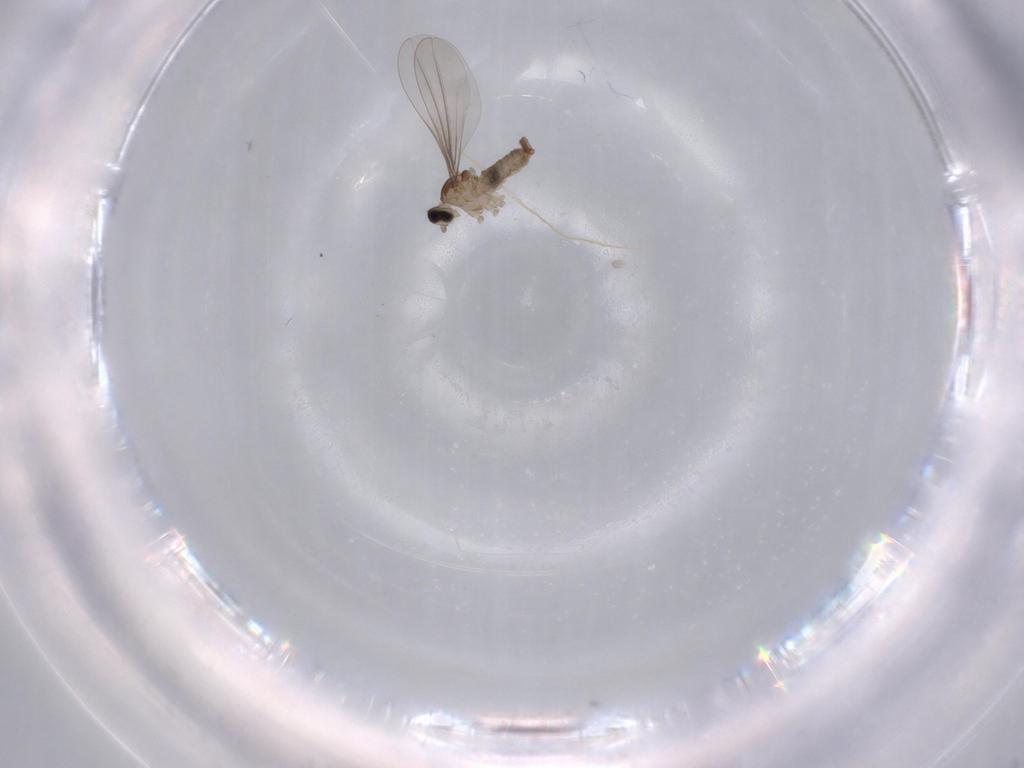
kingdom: Animalia
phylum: Arthropoda
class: Insecta
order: Diptera
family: Cecidomyiidae
